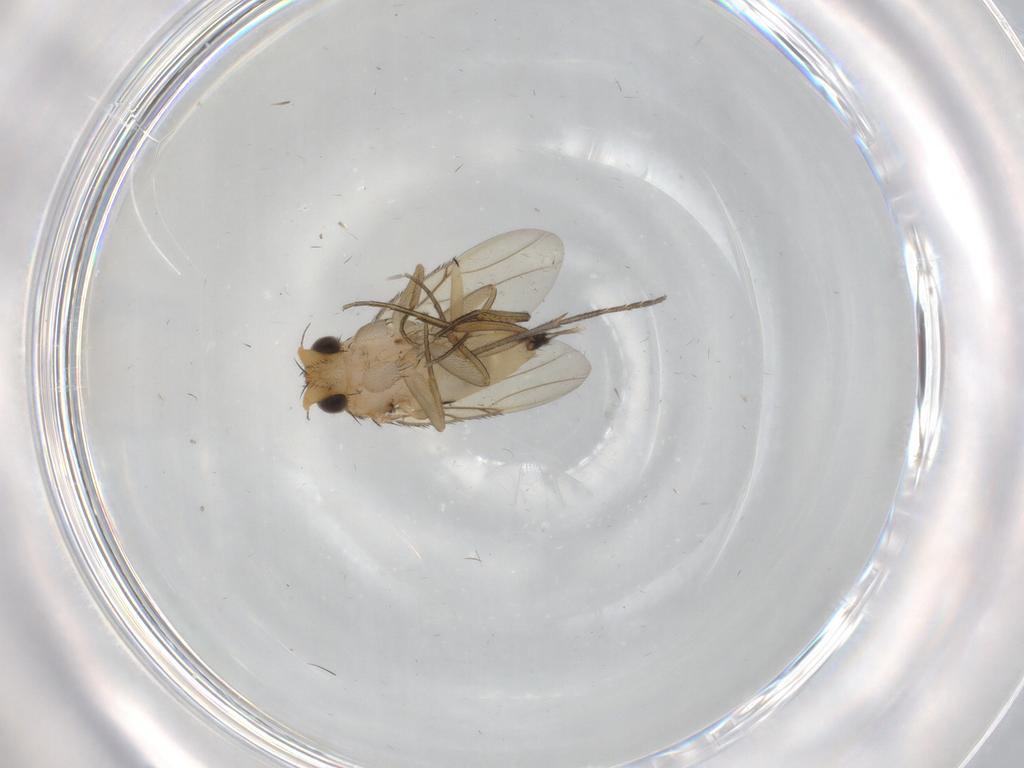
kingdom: Animalia
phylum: Arthropoda
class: Insecta
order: Diptera
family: Phoridae
